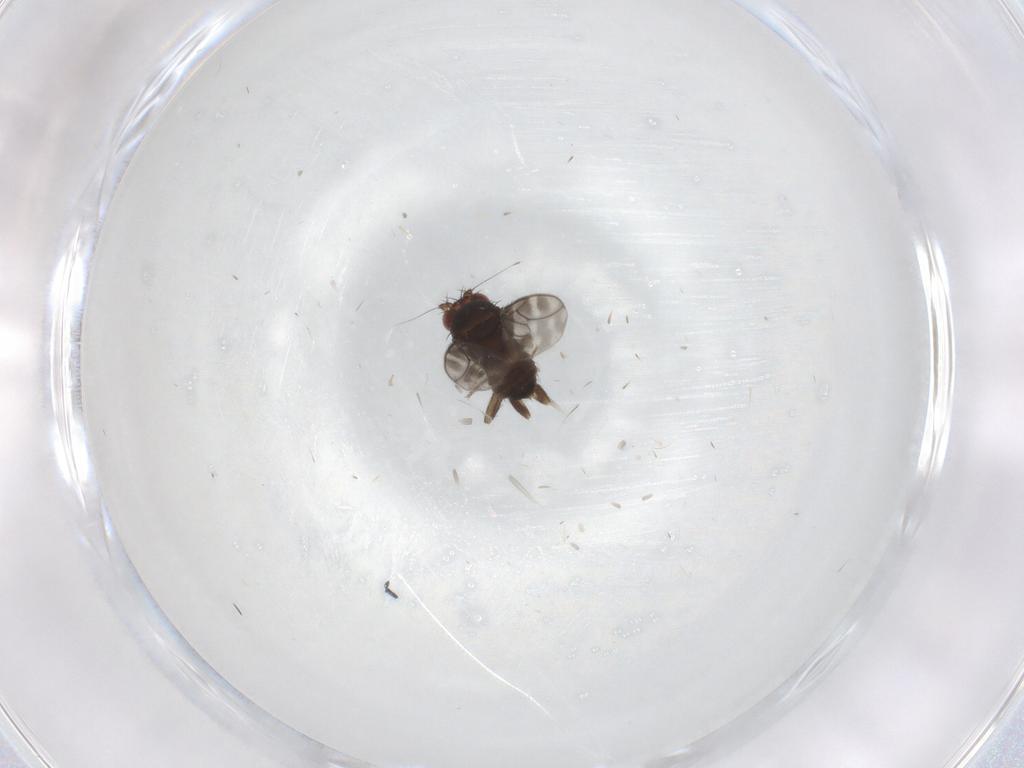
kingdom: Animalia
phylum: Arthropoda
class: Insecta
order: Diptera
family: Sphaeroceridae
